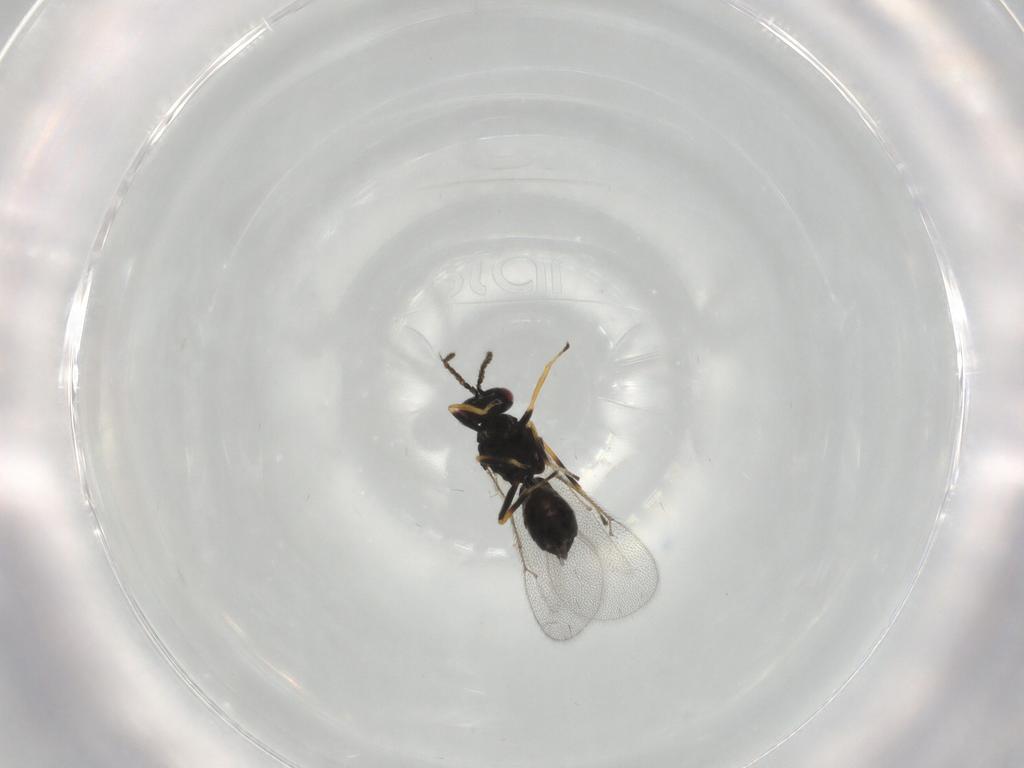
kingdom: Animalia
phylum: Arthropoda
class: Insecta
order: Hymenoptera
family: Eulophidae
